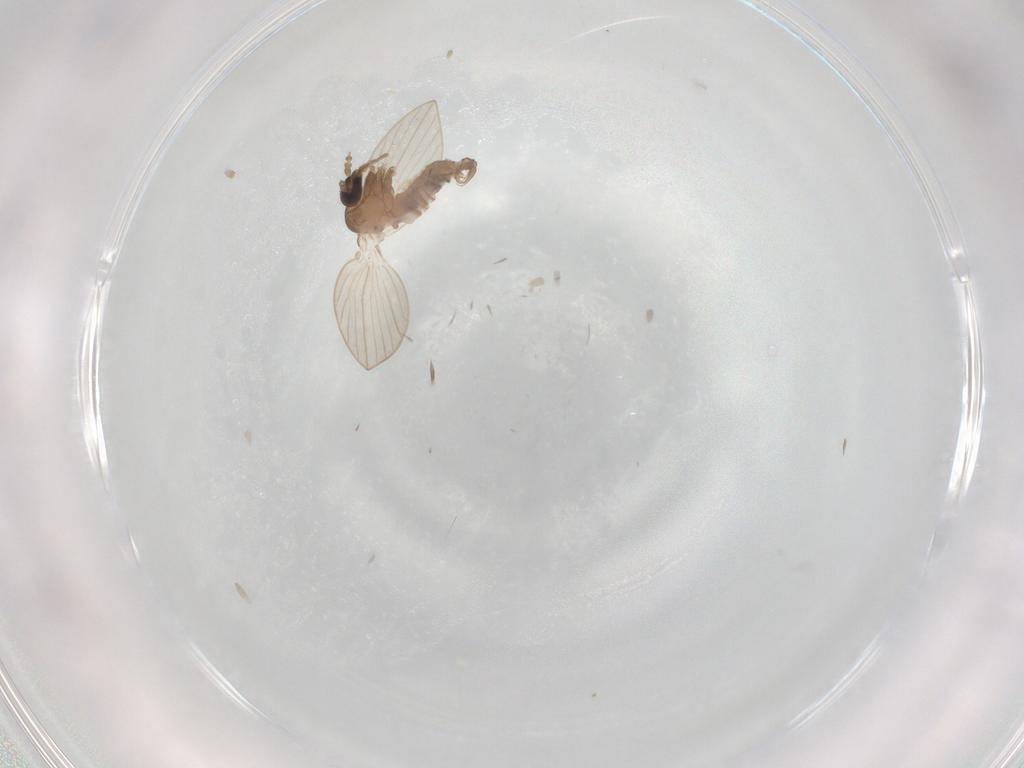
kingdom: Animalia
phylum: Arthropoda
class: Insecta
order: Diptera
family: Psychodidae
